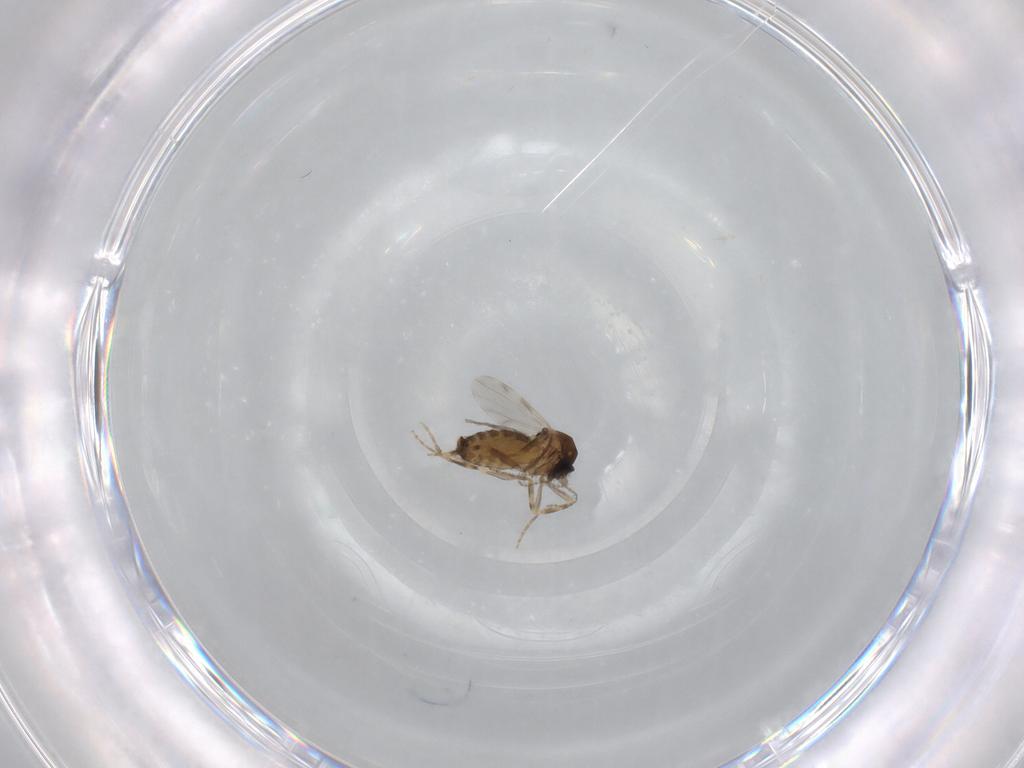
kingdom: Animalia
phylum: Arthropoda
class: Insecta
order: Diptera
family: Ceratopogonidae
